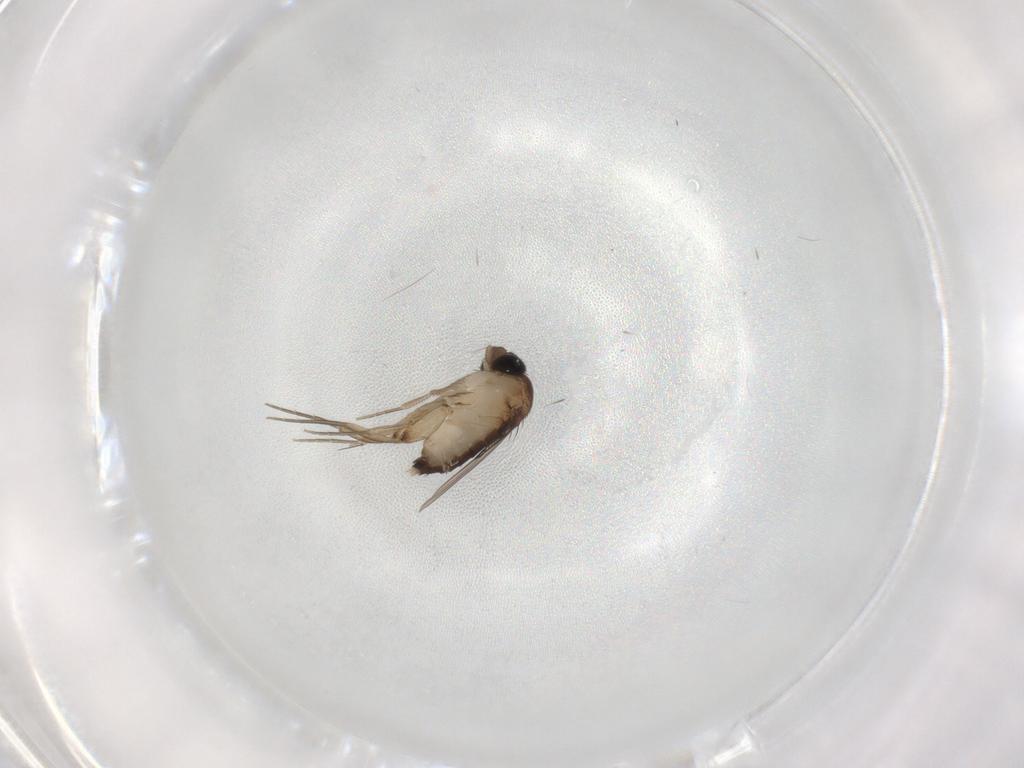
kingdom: Animalia
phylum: Arthropoda
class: Insecta
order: Diptera
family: Phoridae
